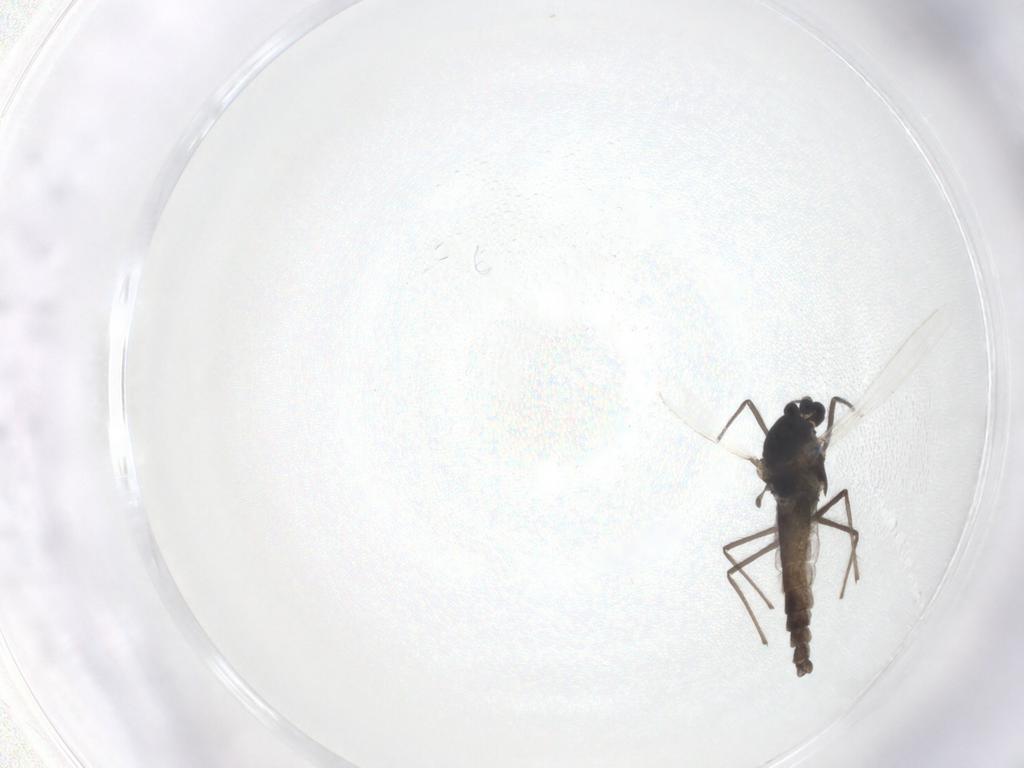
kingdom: Animalia
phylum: Arthropoda
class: Insecta
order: Diptera
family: Chironomidae
